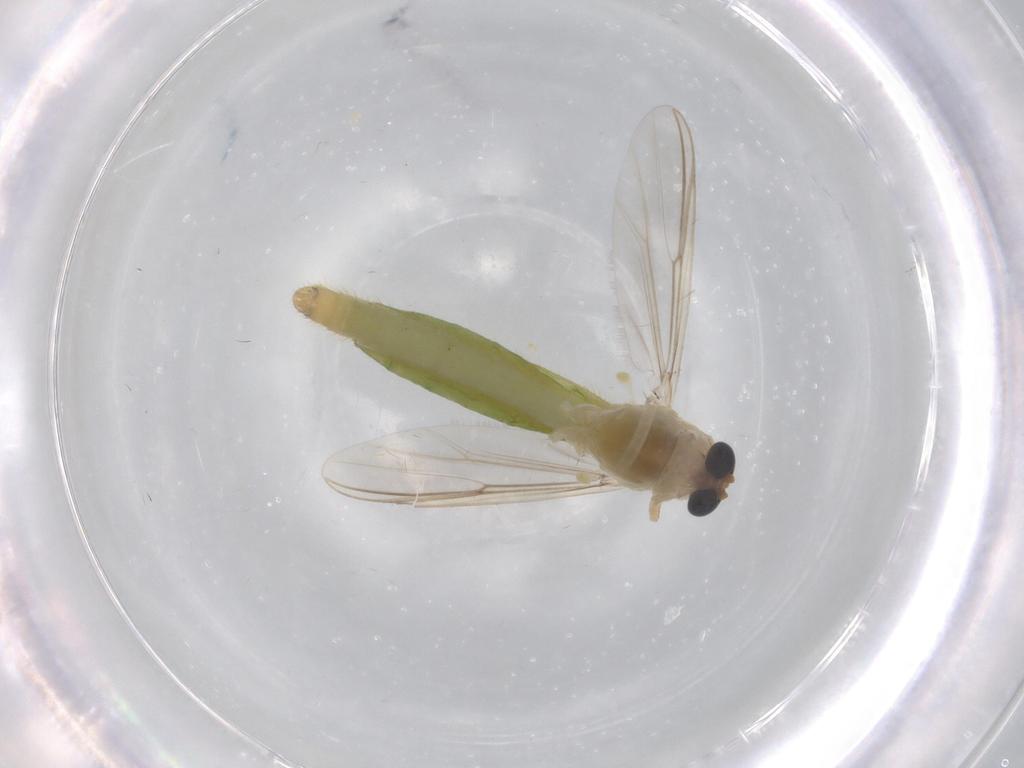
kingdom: Animalia
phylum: Arthropoda
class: Insecta
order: Diptera
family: Chironomidae
